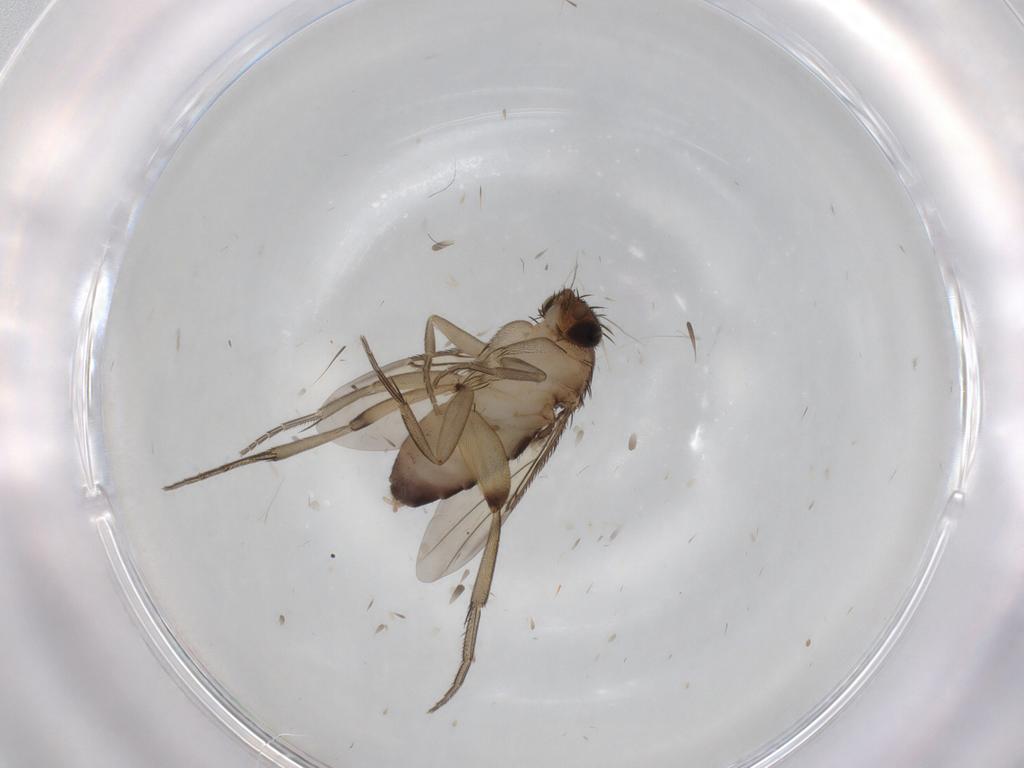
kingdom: Animalia
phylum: Arthropoda
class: Insecta
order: Diptera
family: Phoridae
